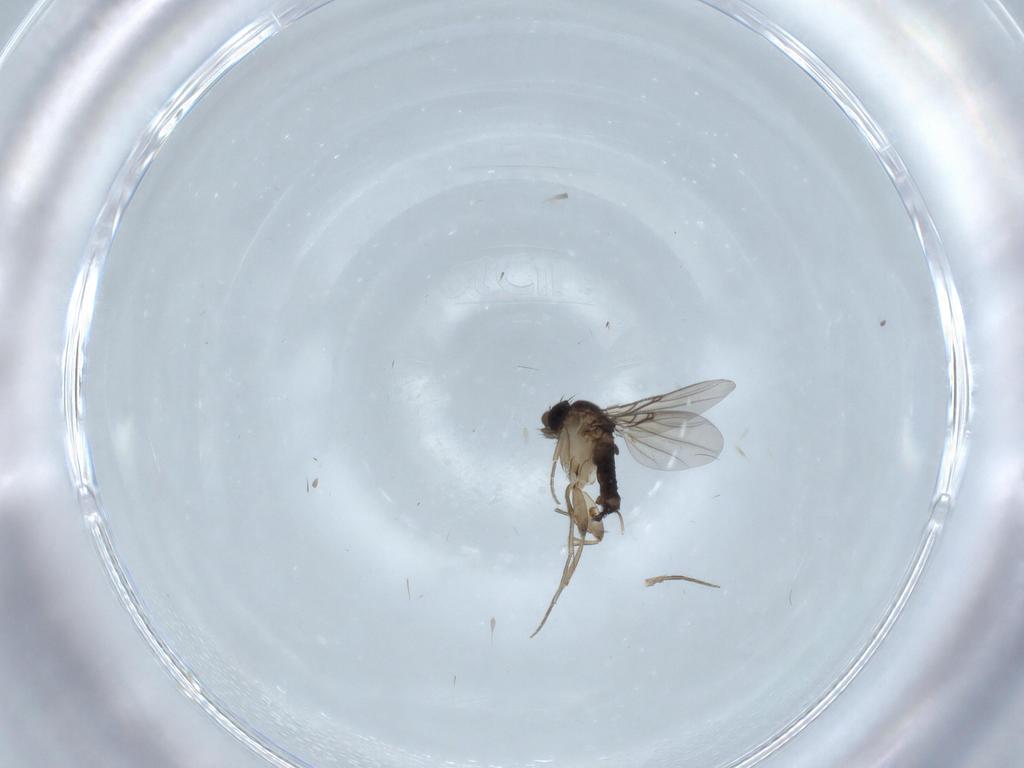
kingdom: Animalia
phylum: Arthropoda
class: Insecta
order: Diptera
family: Phoridae
